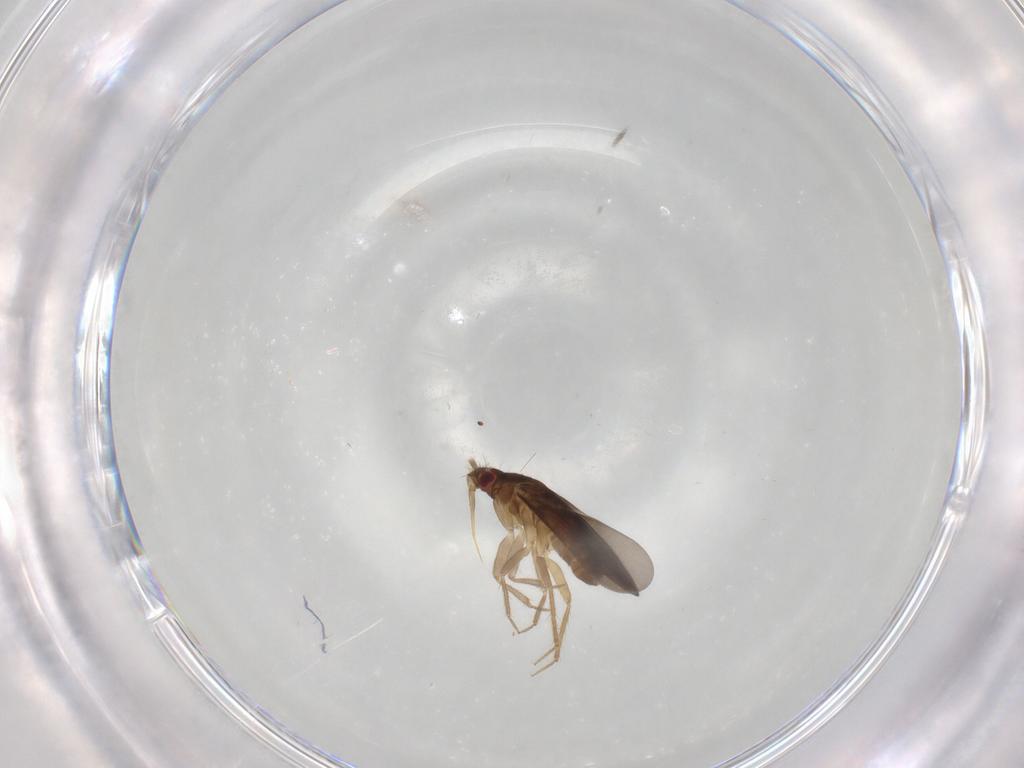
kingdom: Animalia
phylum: Arthropoda
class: Insecta
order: Hemiptera
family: Ceratocombidae
